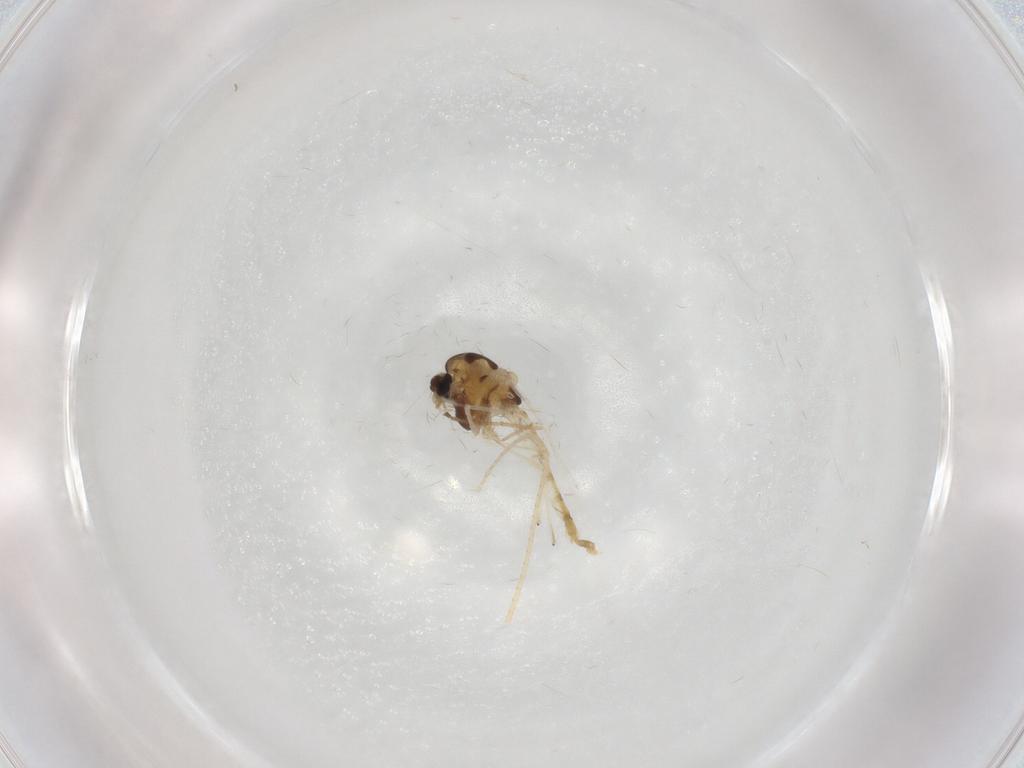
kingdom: Animalia
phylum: Arthropoda
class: Insecta
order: Diptera
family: Chironomidae
